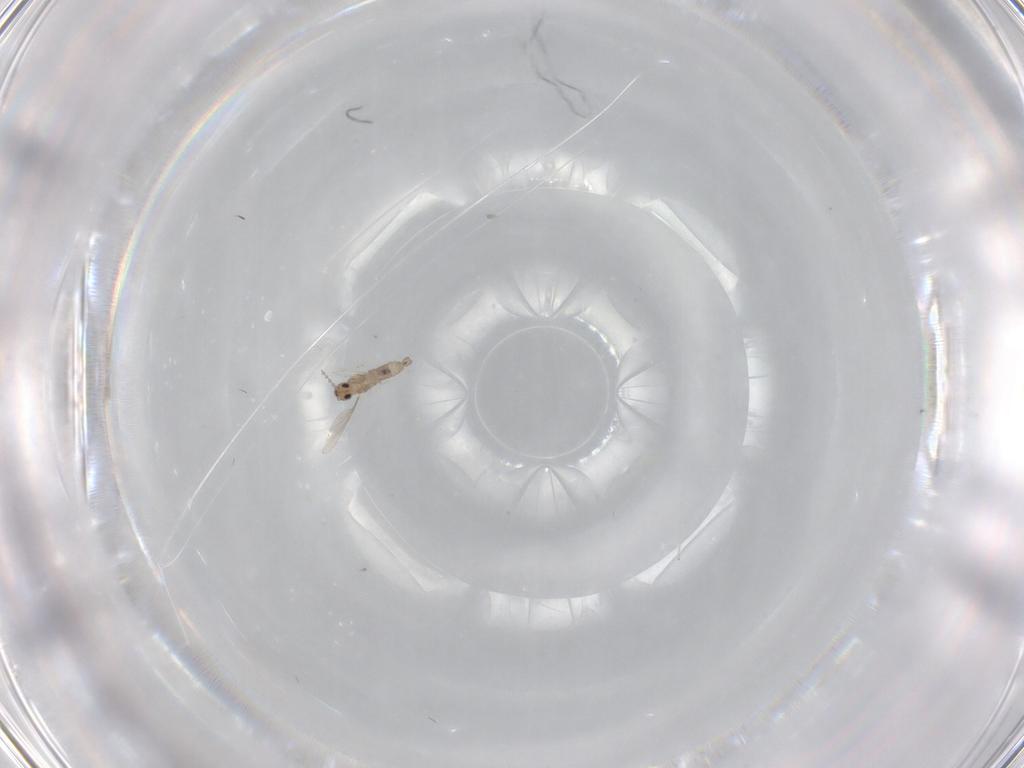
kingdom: Animalia
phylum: Arthropoda
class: Insecta
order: Diptera
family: Cecidomyiidae
